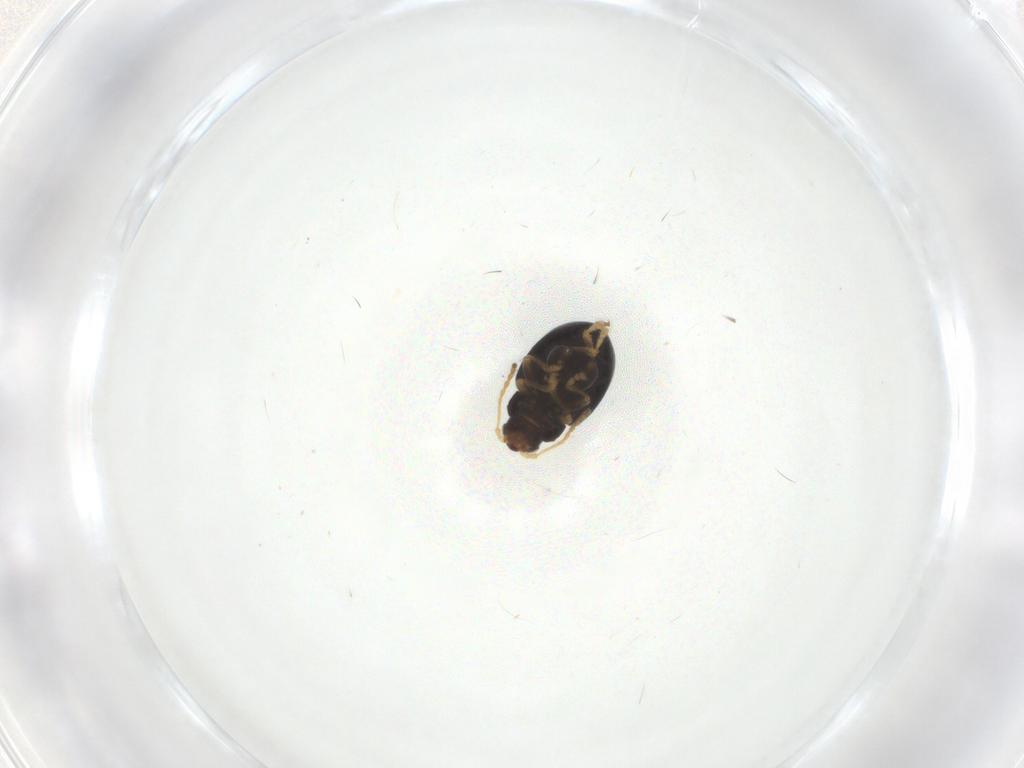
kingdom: Animalia
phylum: Arthropoda
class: Insecta
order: Coleoptera
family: Chrysomelidae
